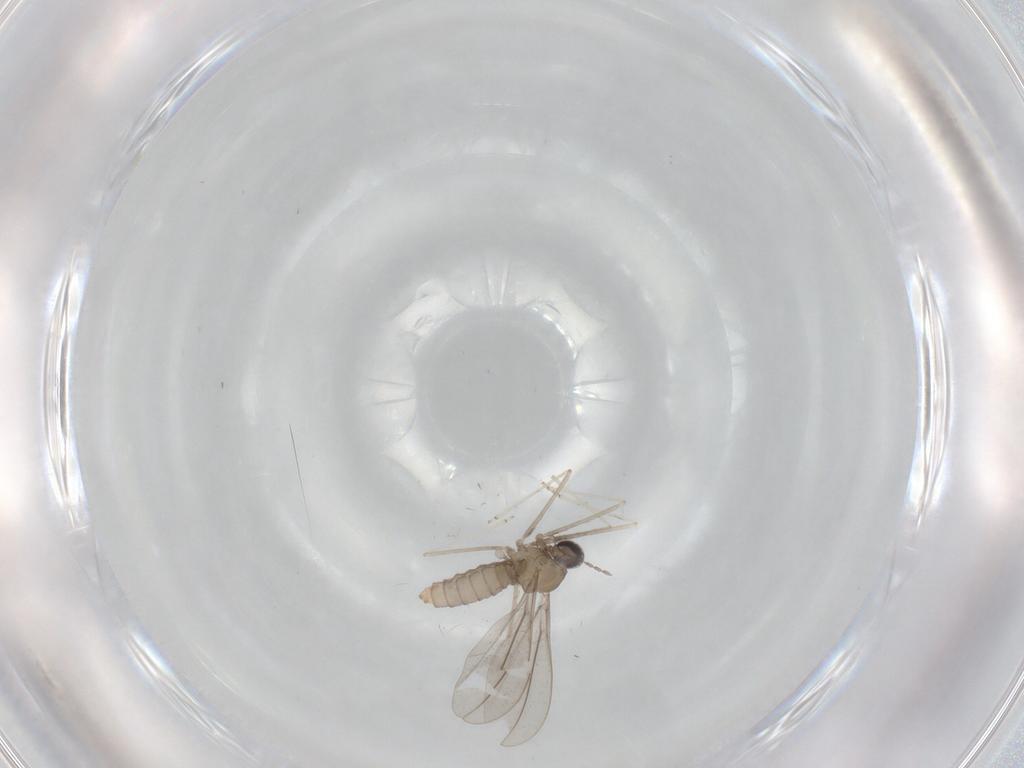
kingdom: Animalia
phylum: Arthropoda
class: Insecta
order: Diptera
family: Cecidomyiidae
